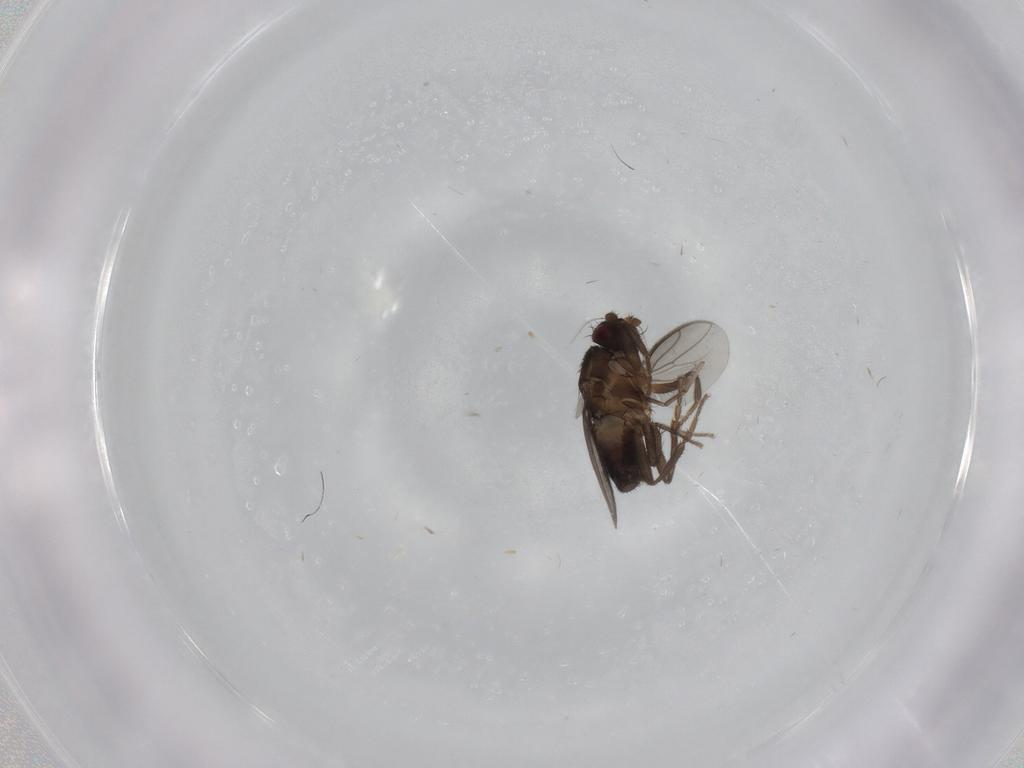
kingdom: Animalia
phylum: Arthropoda
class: Insecta
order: Diptera
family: Sphaeroceridae
